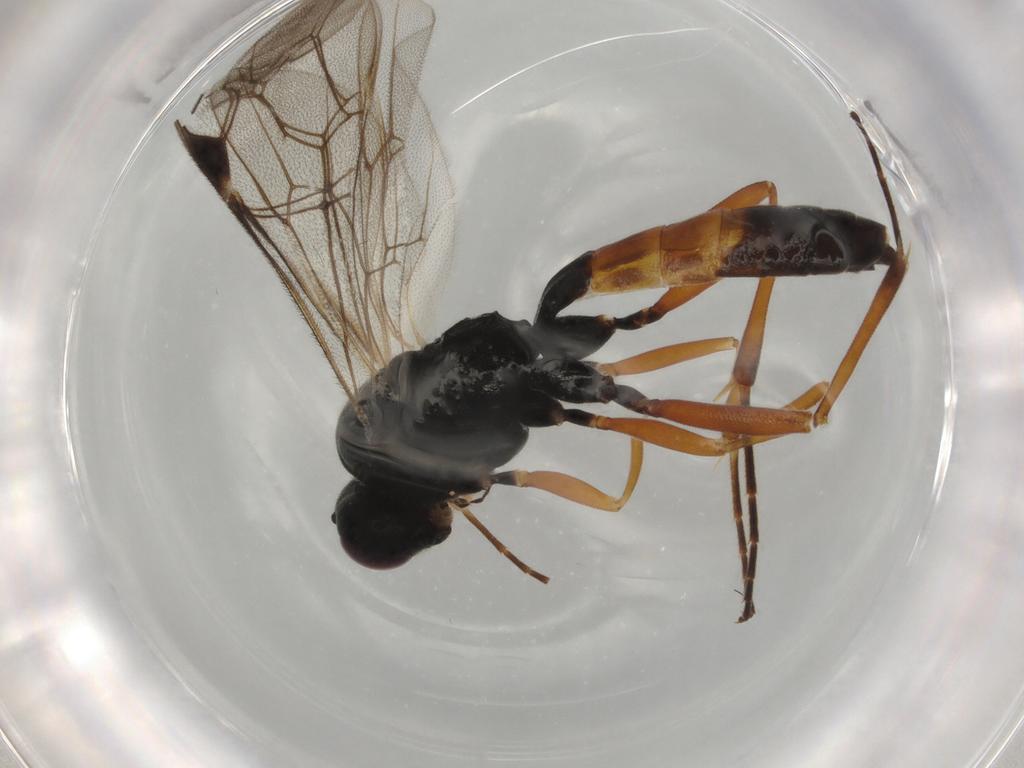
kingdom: Animalia
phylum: Arthropoda
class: Insecta
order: Hymenoptera
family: Formicidae
